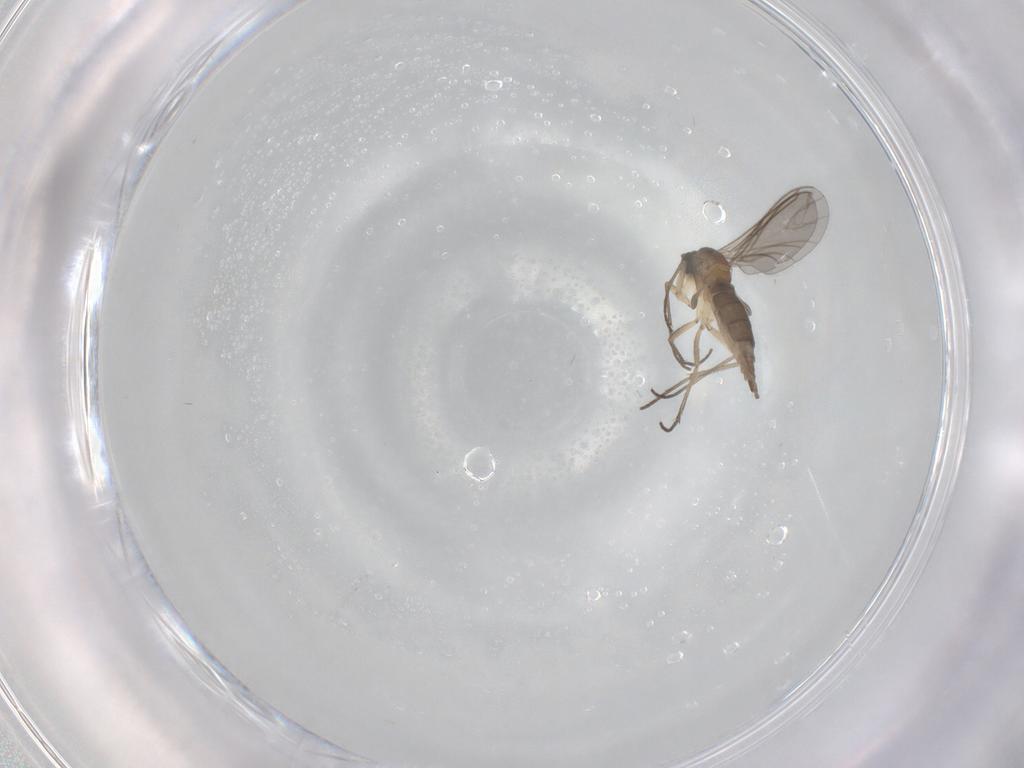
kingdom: Animalia
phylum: Arthropoda
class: Insecta
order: Diptera
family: Sciaridae
